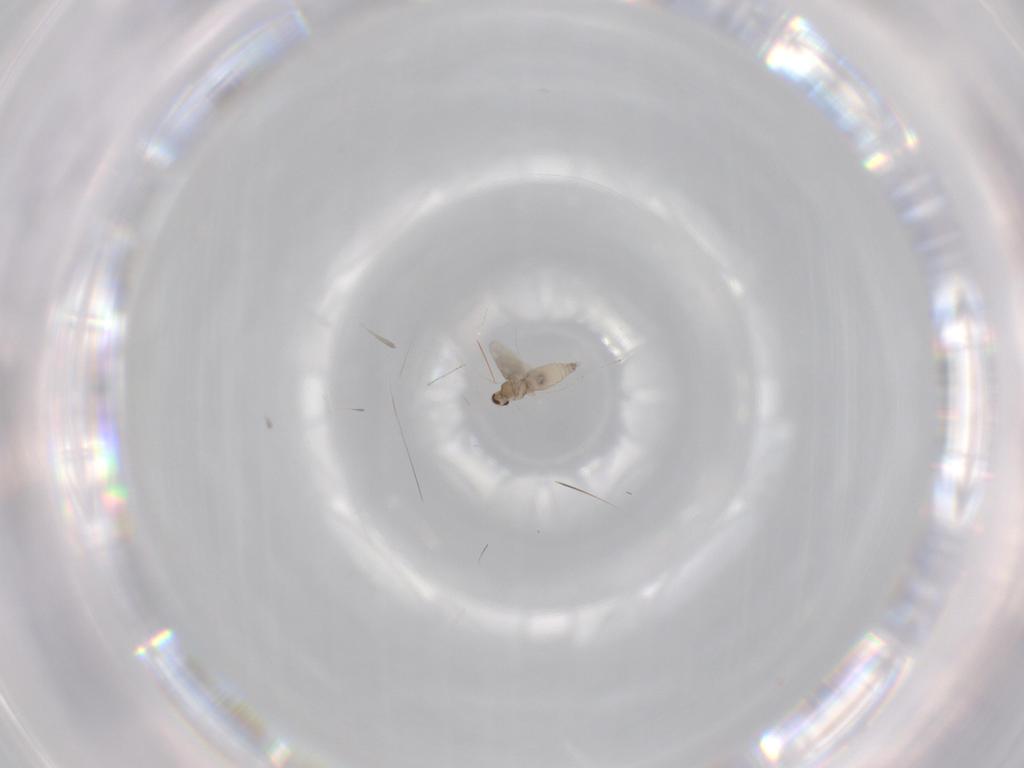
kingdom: Animalia
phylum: Arthropoda
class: Insecta
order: Diptera
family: Cecidomyiidae
